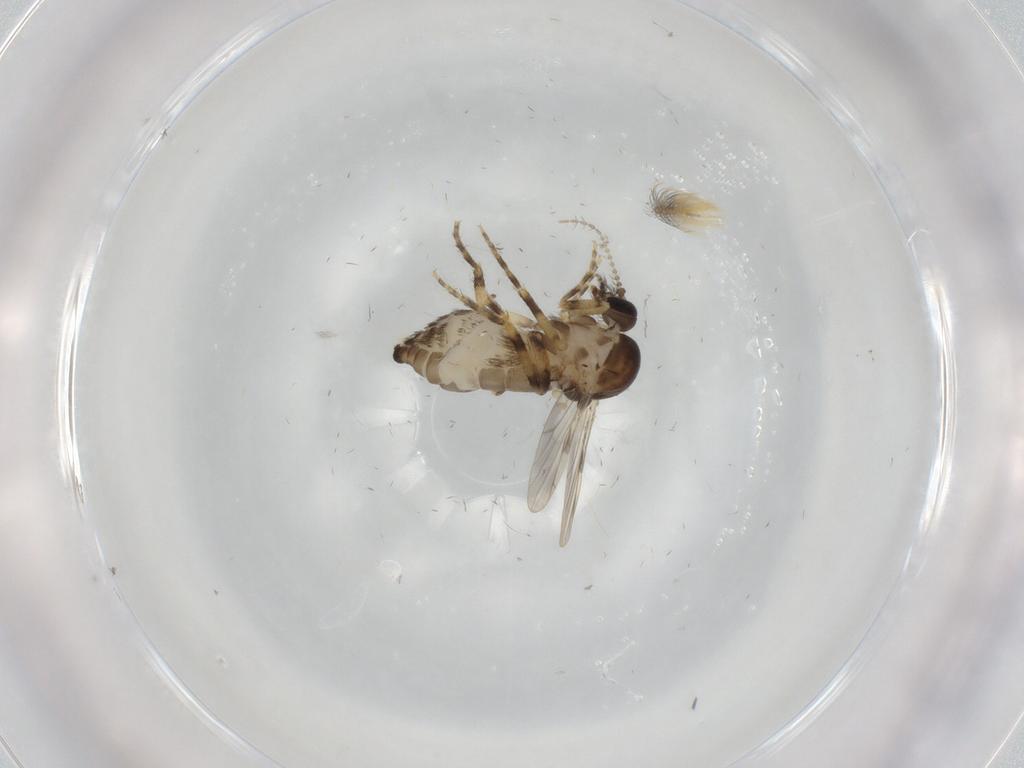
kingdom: Animalia
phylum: Arthropoda
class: Insecta
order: Diptera
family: Ceratopogonidae
